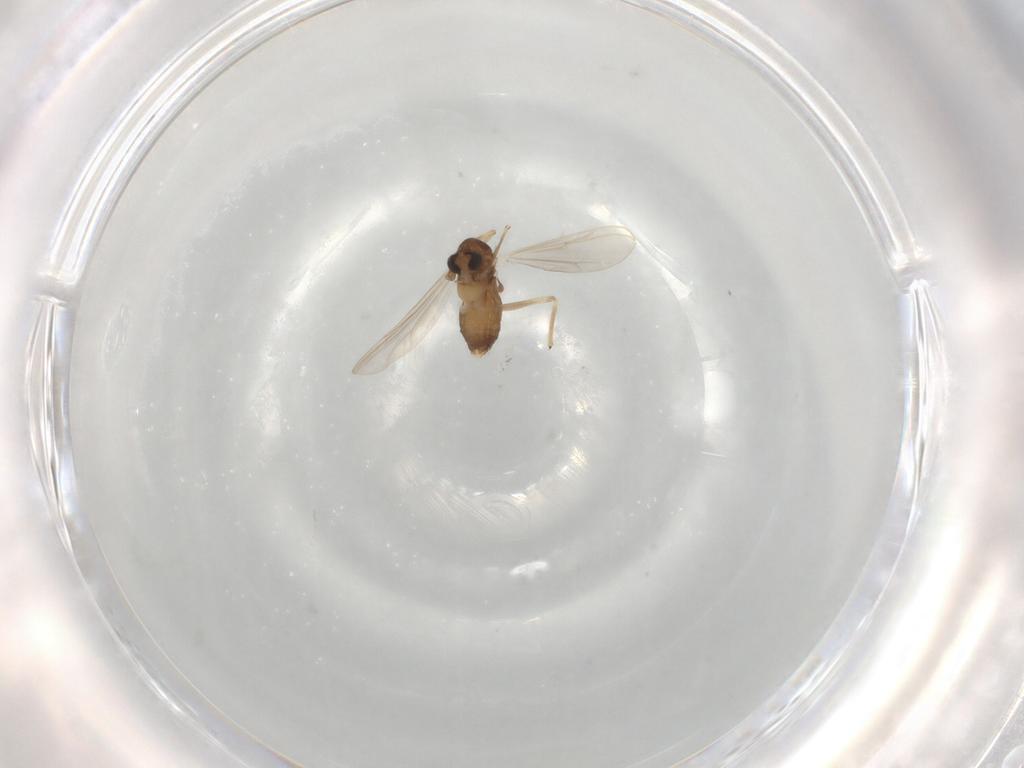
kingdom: Animalia
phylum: Arthropoda
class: Insecta
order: Diptera
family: Chironomidae
